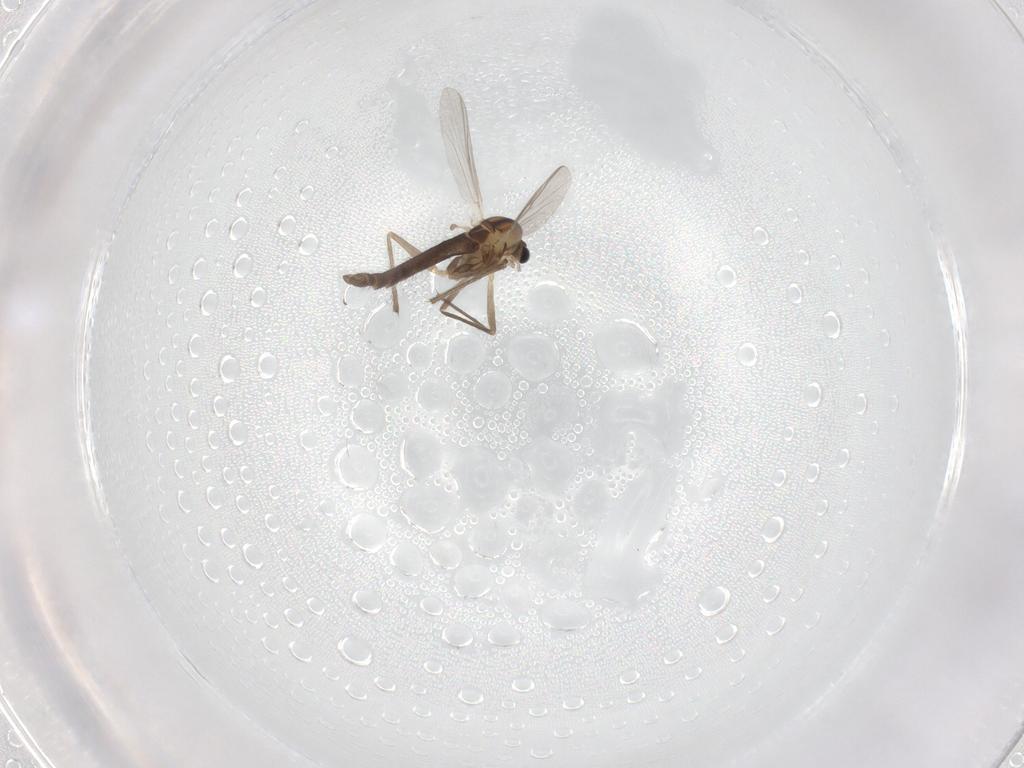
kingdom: Animalia
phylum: Arthropoda
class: Insecta
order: Diptera
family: Chironomidae
